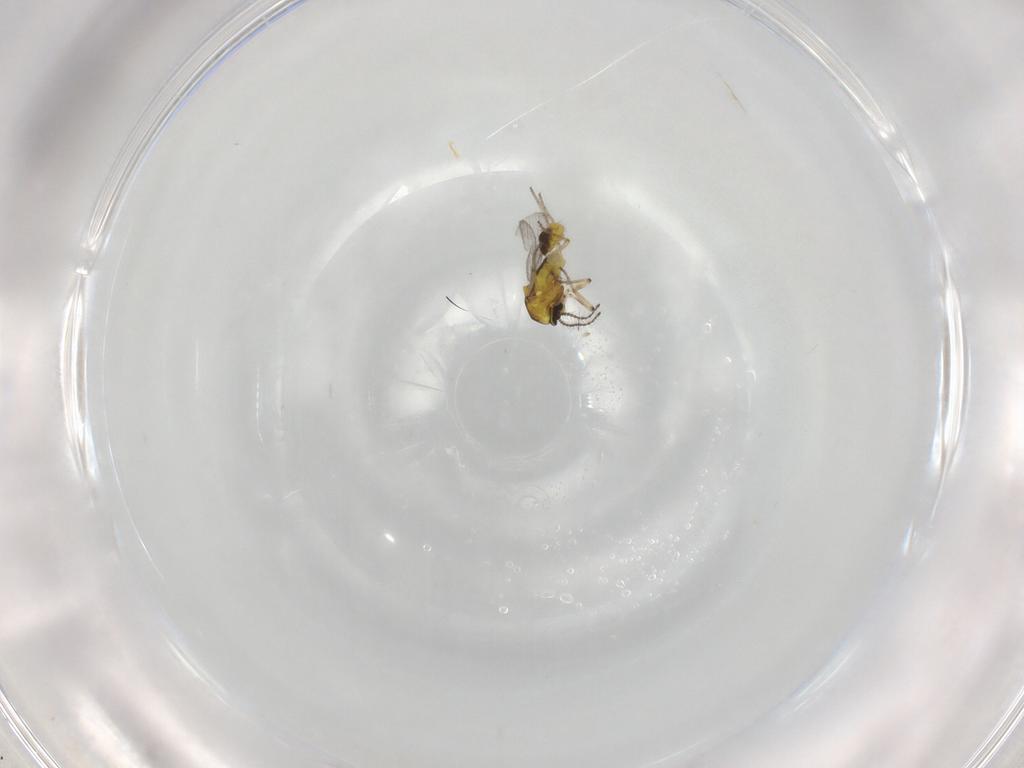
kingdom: Animalia
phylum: Arthropoda
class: Insecta
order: Diptera
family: Ceratopogonidae
